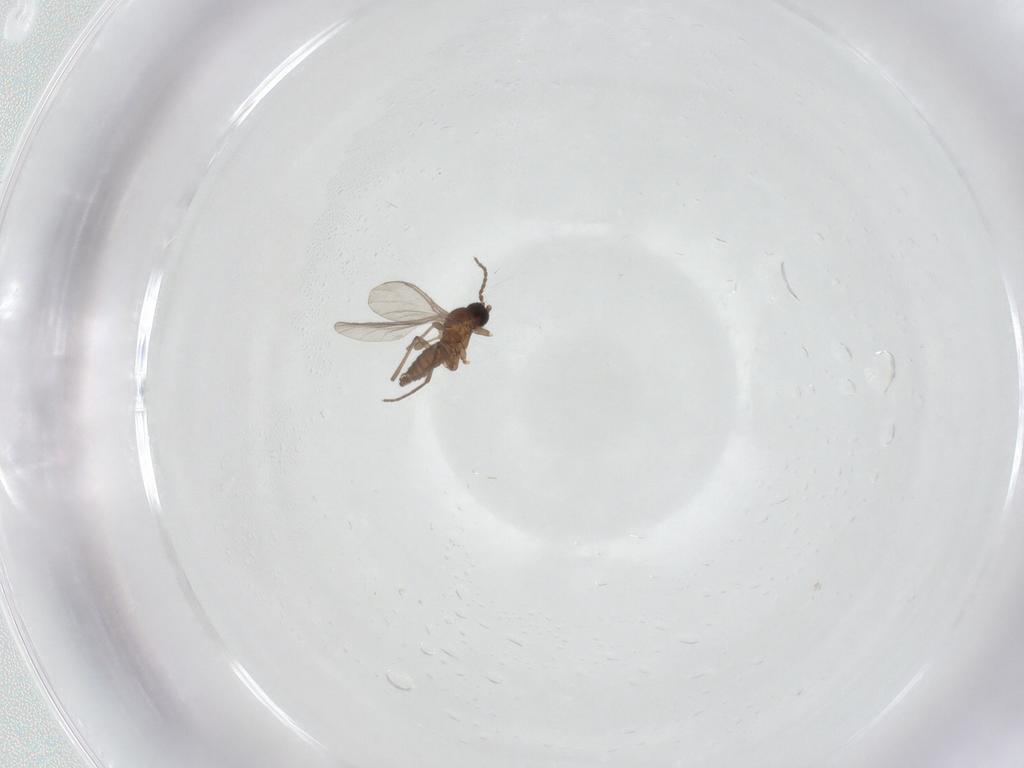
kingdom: Animalia
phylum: Arthropoda
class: Insecta
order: Diptera
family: Sciaridae
